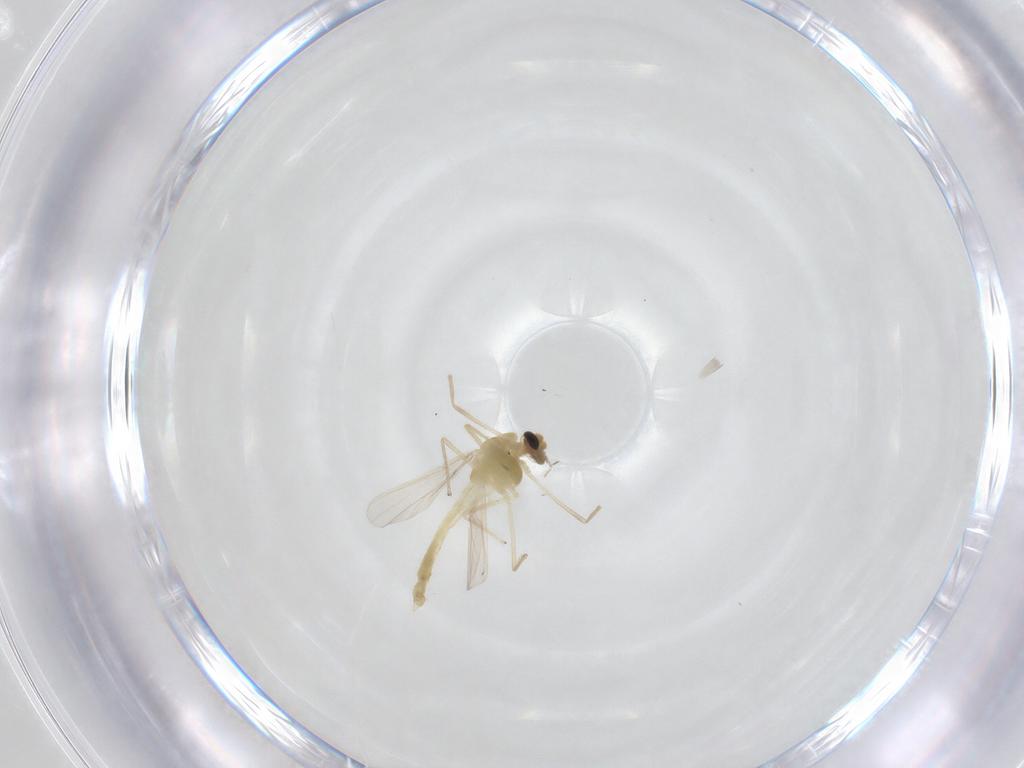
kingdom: Animalia
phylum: Arthropoda
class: Insecta
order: Diptera
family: Chironomidae
